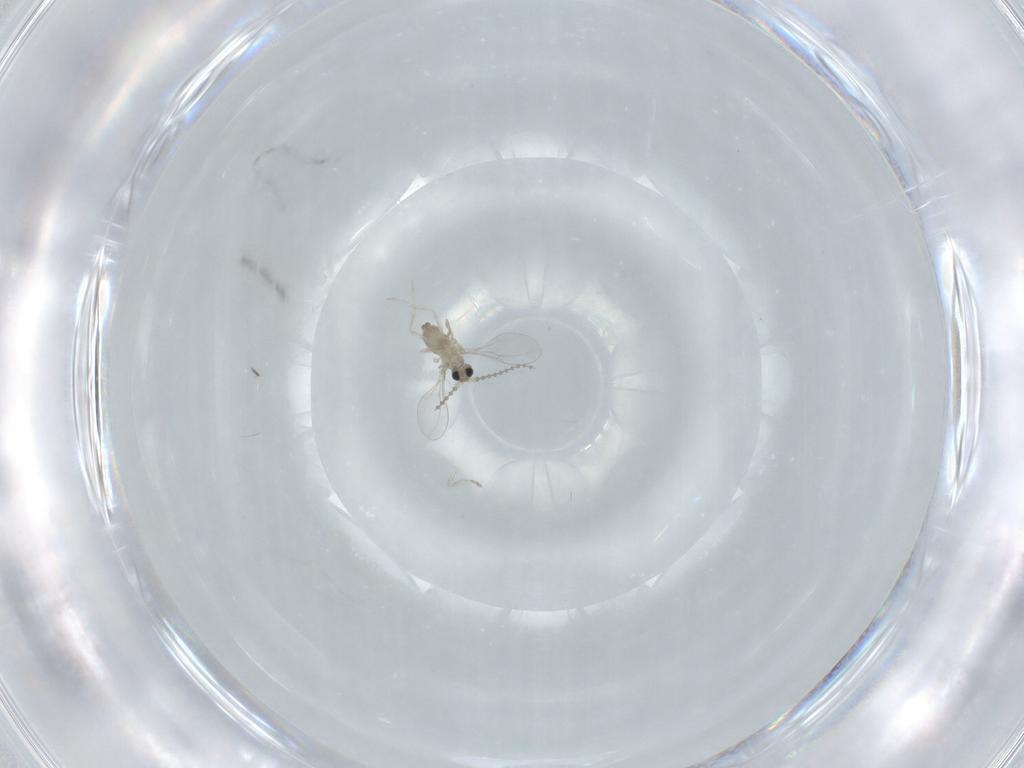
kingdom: Animalia
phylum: Arthropoda
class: Insecta
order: Diptera
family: Cecidomyiidae
